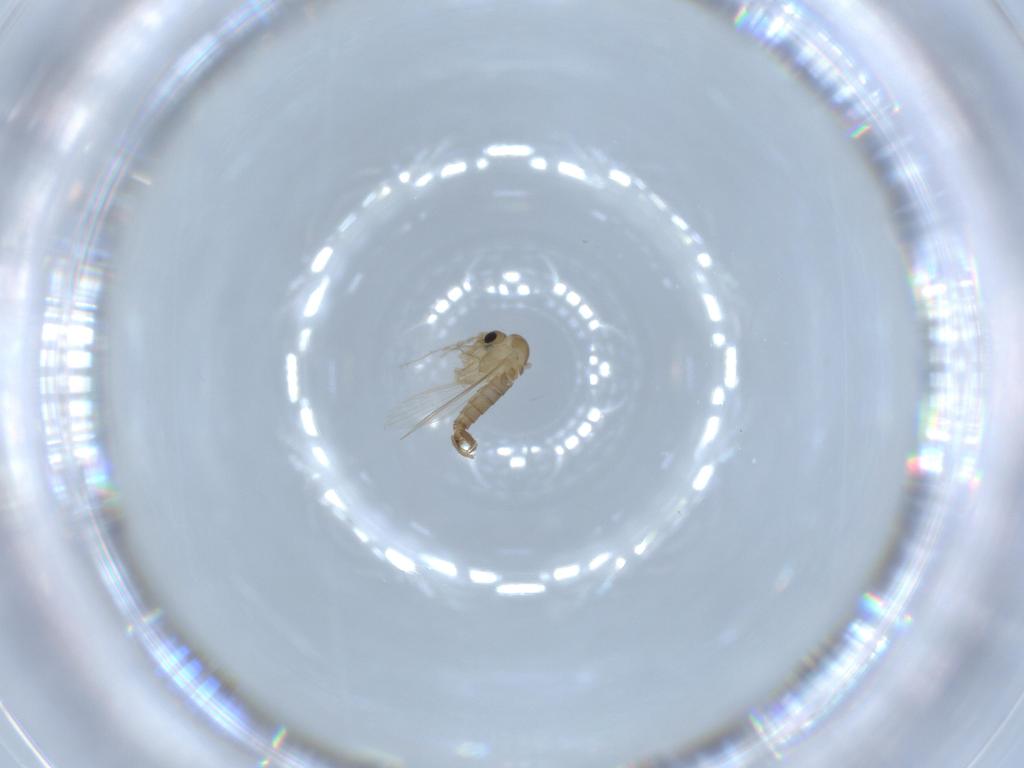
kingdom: Animalia
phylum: Arthropoda
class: Insecta
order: Diptera
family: Psychodidae
